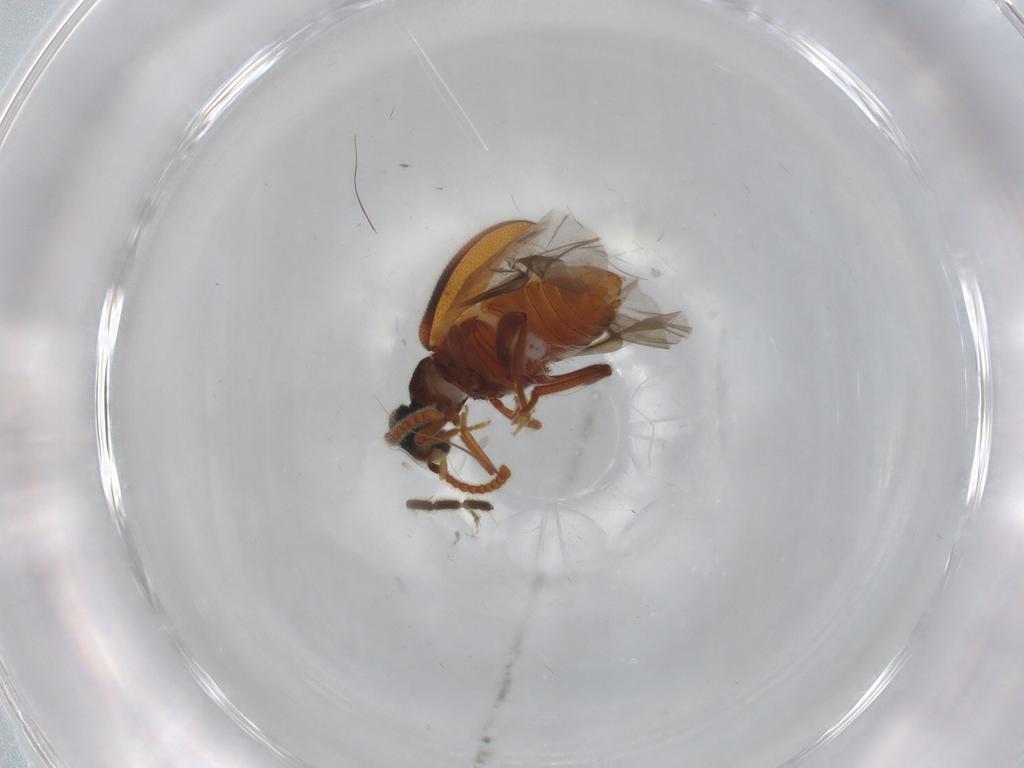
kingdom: Animalia
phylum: Arthropoda
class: Insecta
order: Coleoptera
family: Aderidae
